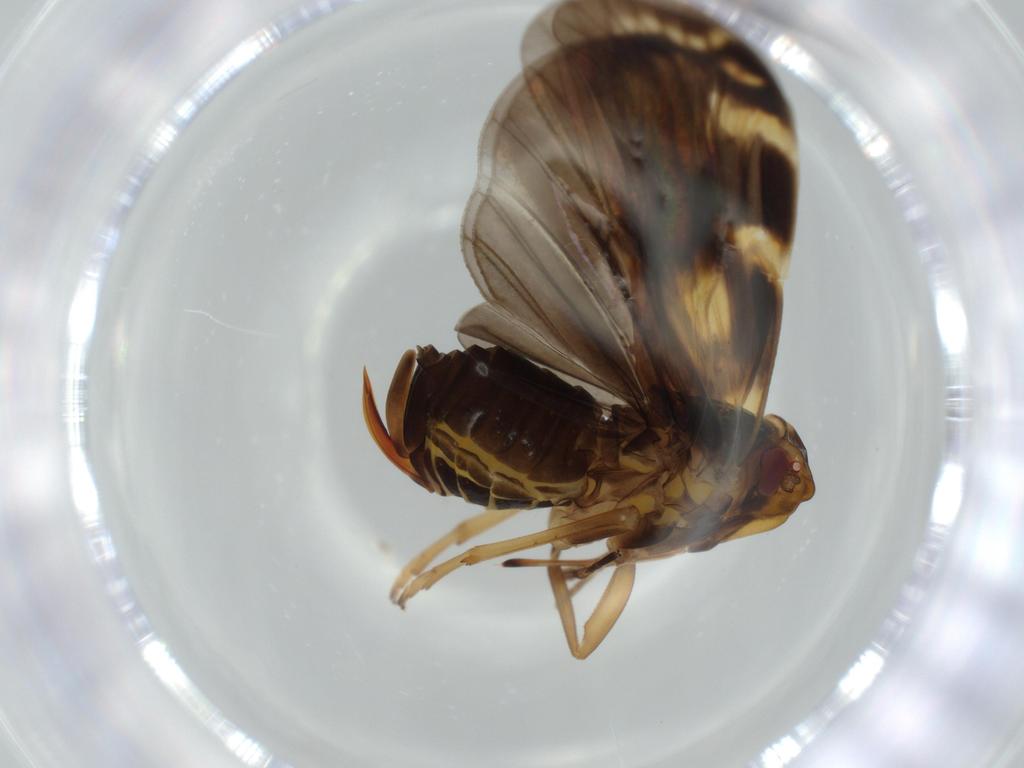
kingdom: Animalia
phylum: Arthropoda
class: Insecta
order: Hemiptera
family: Cixiidae
